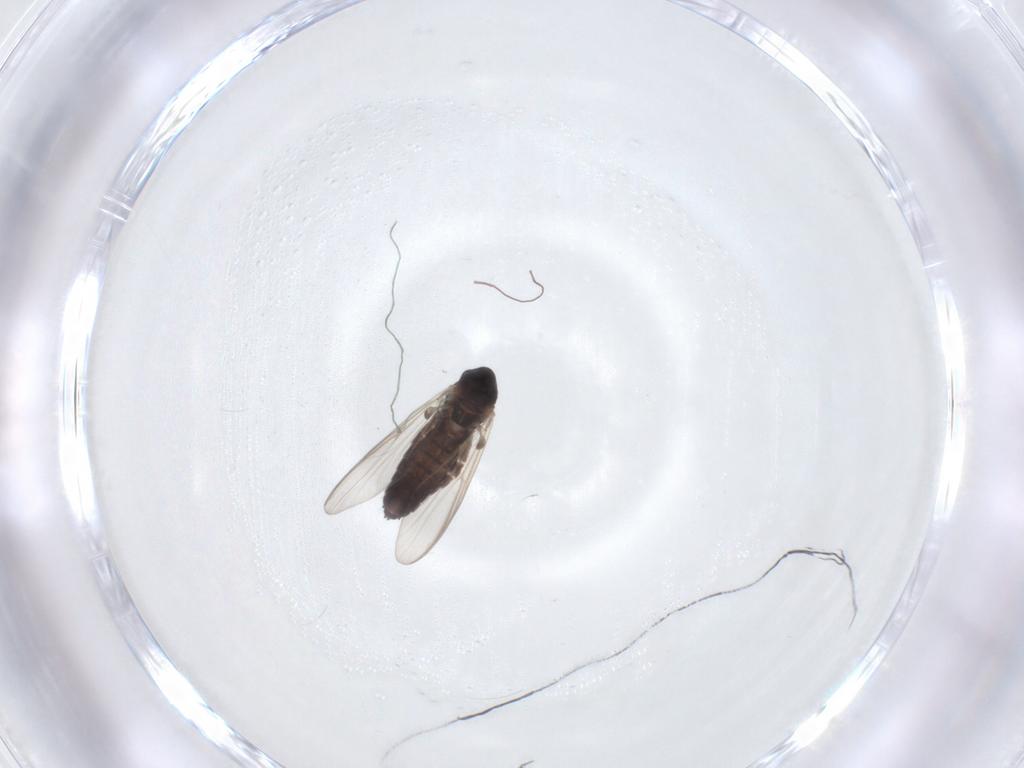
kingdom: Animalia
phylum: Arthropoda
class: Insecta
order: Diptera
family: Chironomidae
